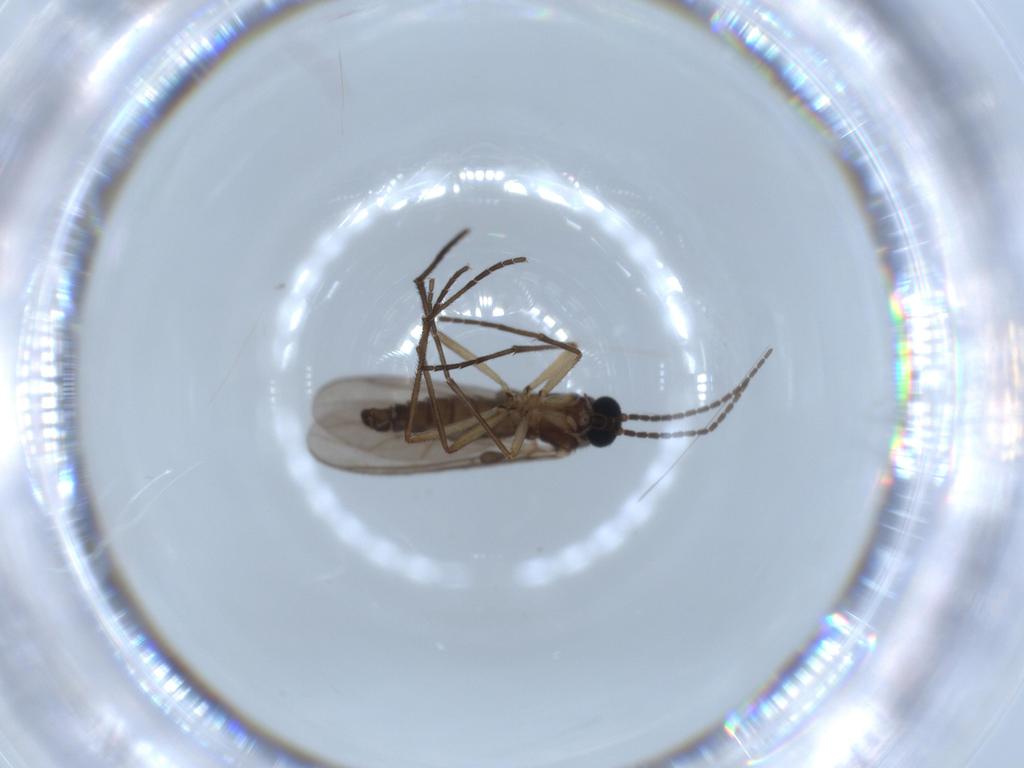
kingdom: Animalia
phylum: Arthropoda
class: Insecta
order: Diptera
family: Sciaridae
